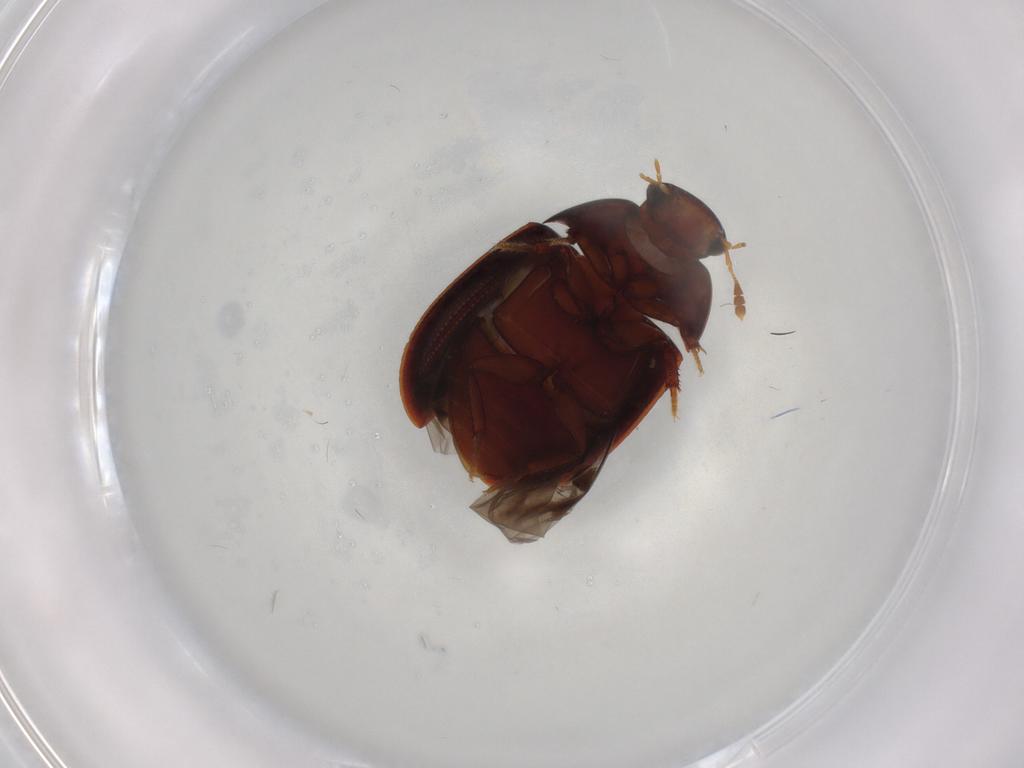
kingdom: Animalia
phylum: Arthropoda
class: Insecta
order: Coleoptera
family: Hydrophilidae
